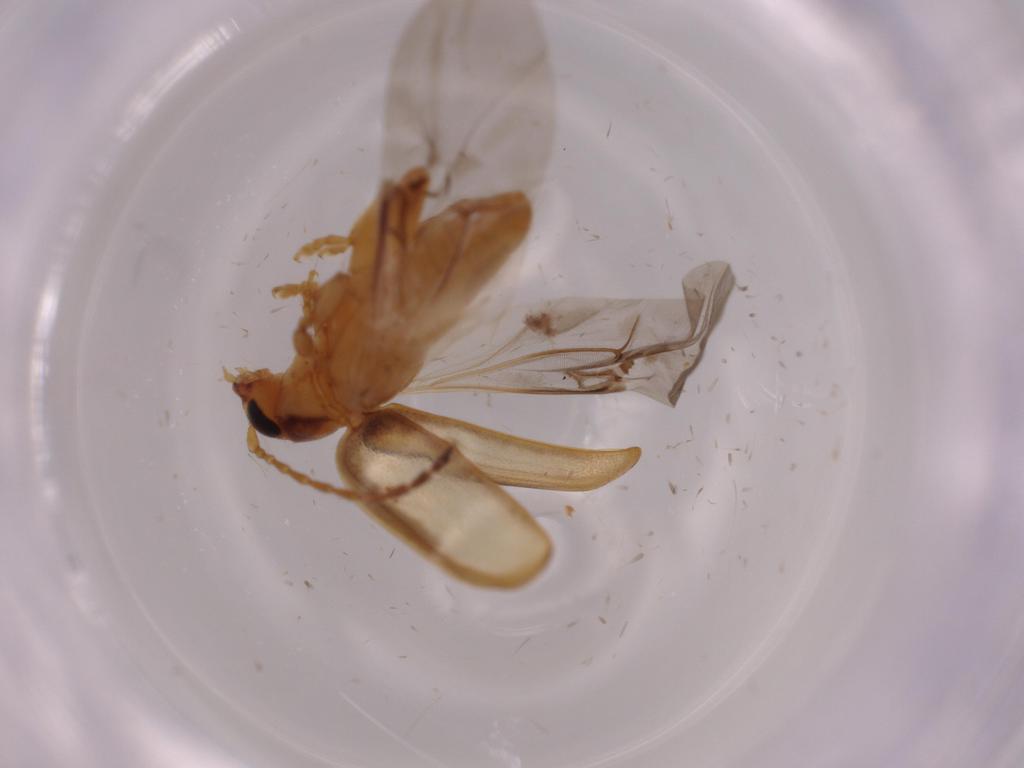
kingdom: Animalia
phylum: Arthropoda
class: Insecta
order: Coleoptera
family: Chrysomelidae
